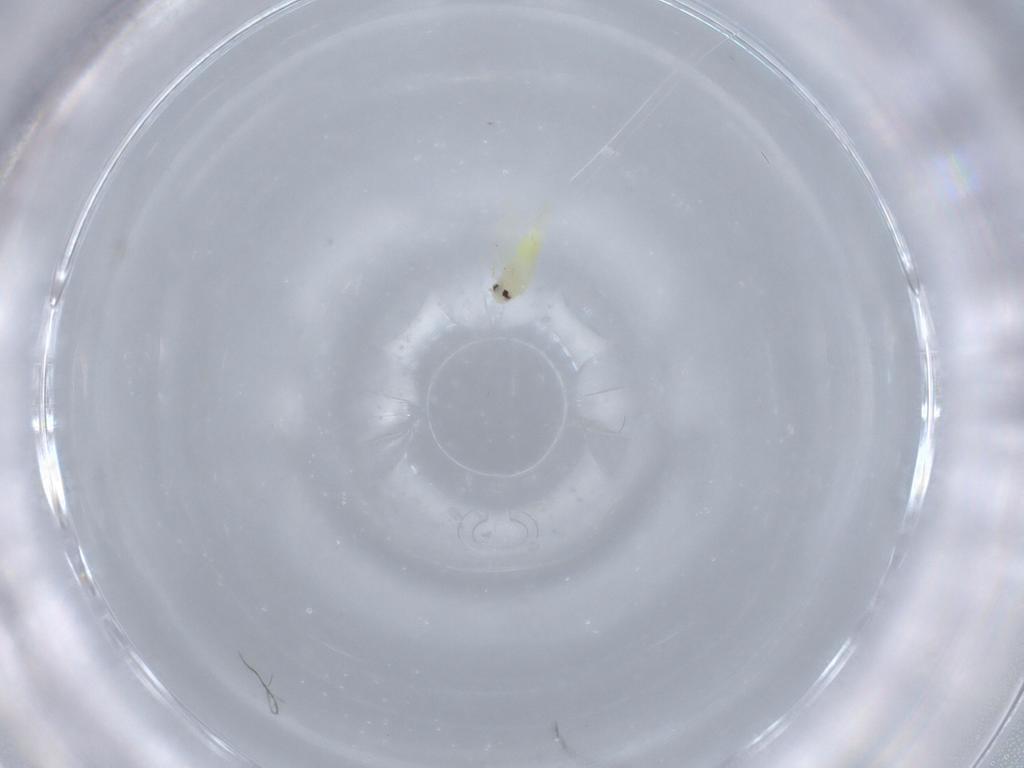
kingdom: Animalia
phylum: Arthropoda
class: Insecta
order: Hemiptera
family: Aleyrodidae
